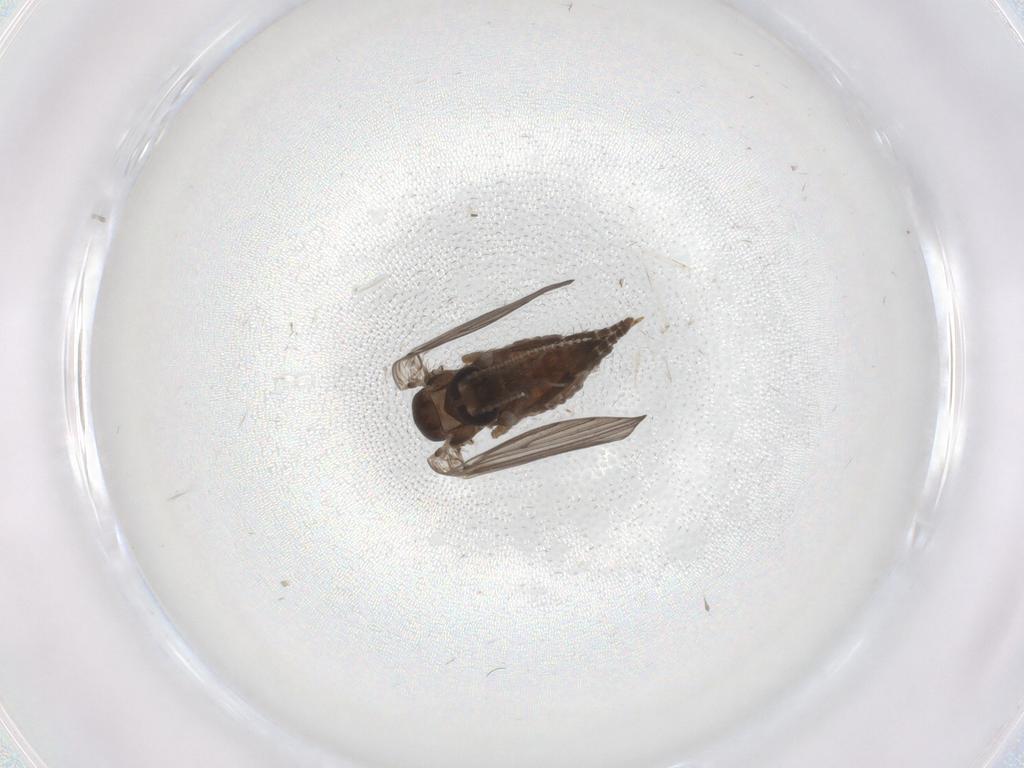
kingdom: Animalia
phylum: Arthropoda
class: Insecta
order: Diptera
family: Psychodidae
